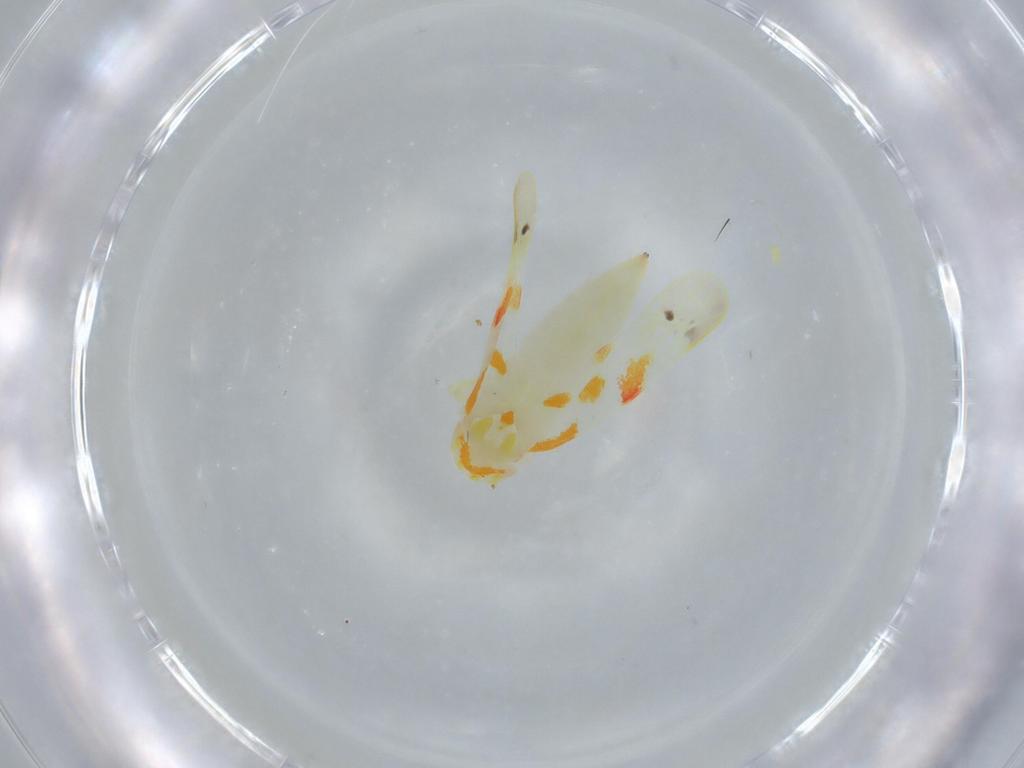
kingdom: Animalia
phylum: Arthropoda
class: Insecta
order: Hemiptera
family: Cicadellidae
